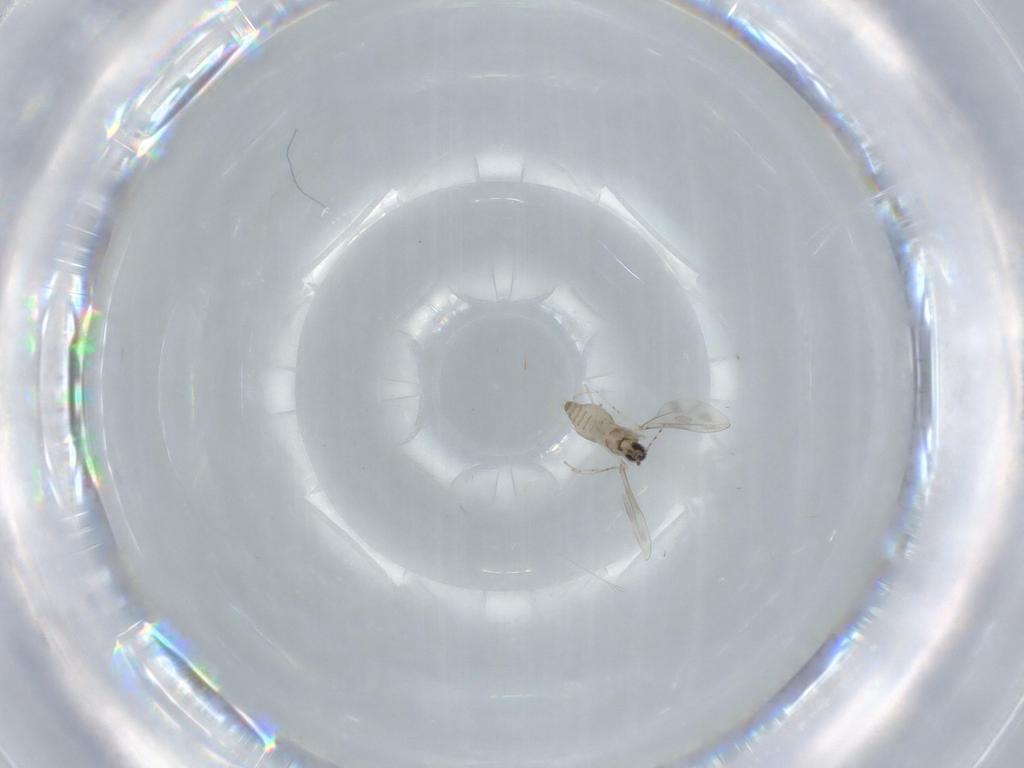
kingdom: Animalia
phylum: Arthropoda
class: Insecta
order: Diptera
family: Cecidomyiidae
